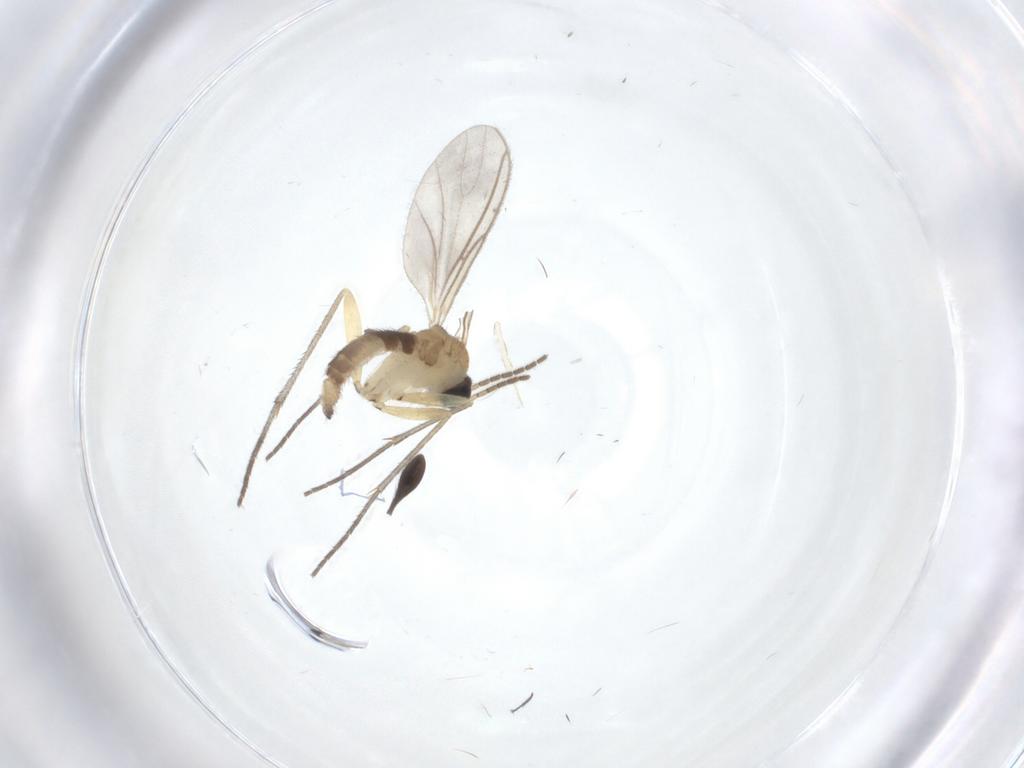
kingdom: Animalia
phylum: Arthropoda
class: Insecta
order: Diptera
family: Sciaridae
